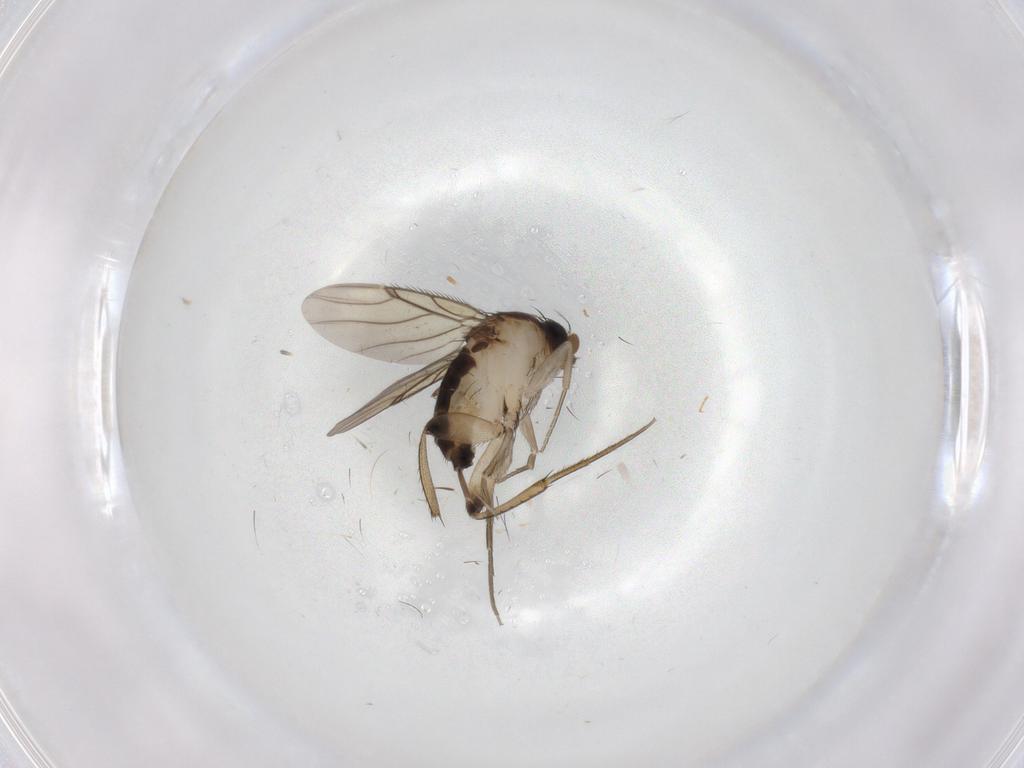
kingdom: Animalia
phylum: Arthropoda
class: Insecta
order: Diptera
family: Phoridae
